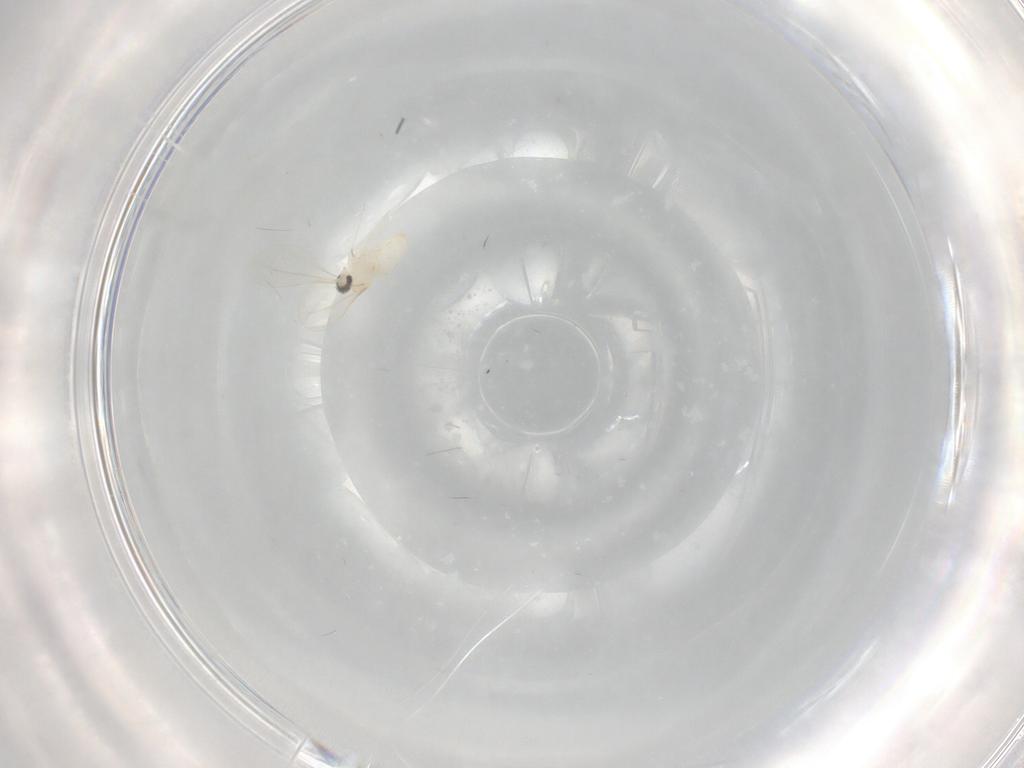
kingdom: Animalia
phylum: Arthropoda
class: Insecta
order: Diptera
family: Cecidomyiidae
